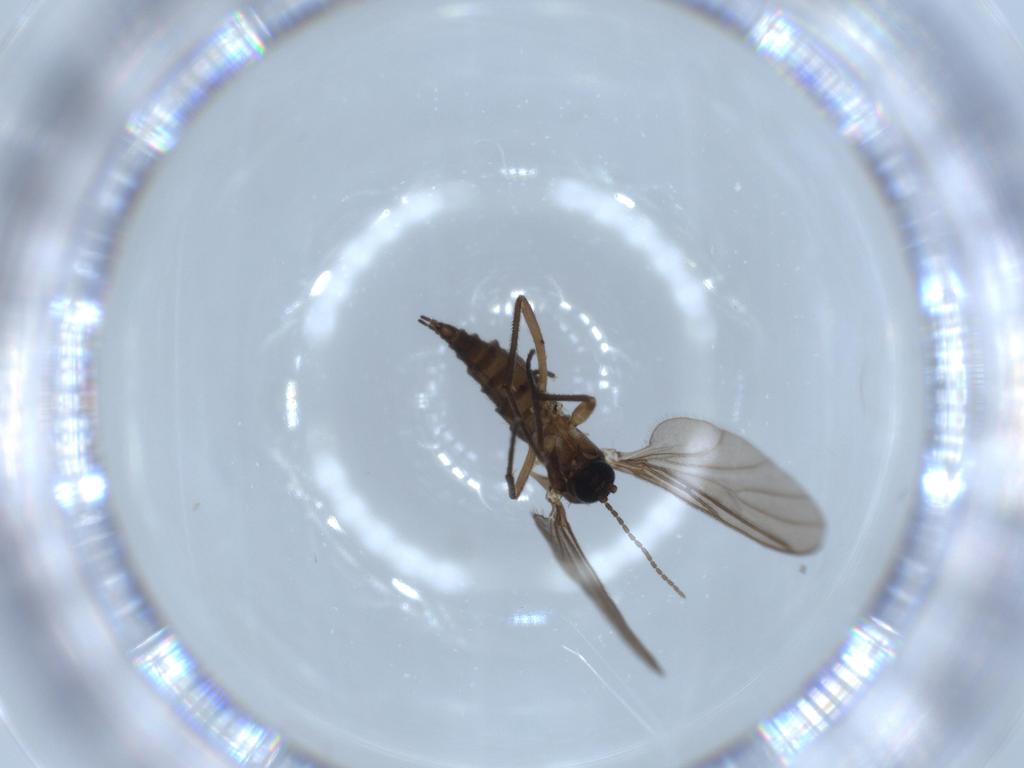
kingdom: Animalia
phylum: Arthropoda
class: Insecta
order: Diptera
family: Sciaridae
